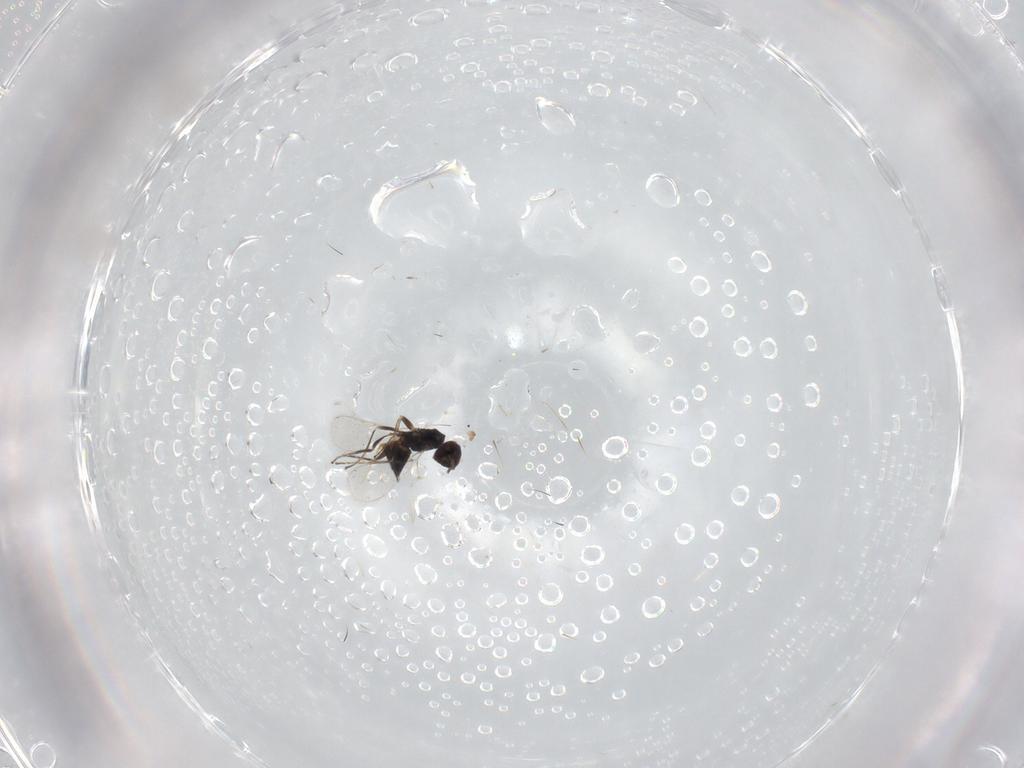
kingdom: Animalia
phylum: Arthropoda
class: Insecta
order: Hymenoptera
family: Mymaridae
